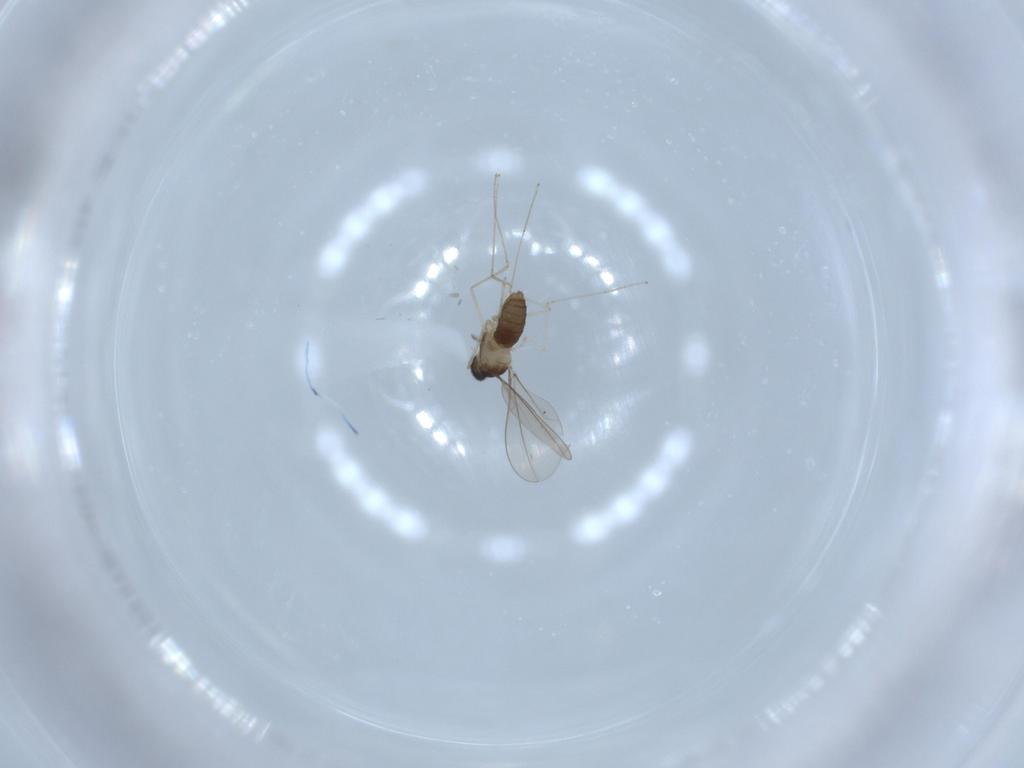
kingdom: Animalia
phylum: Arthropoda
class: Insecta
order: Diptera
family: Cecidomyiidae
